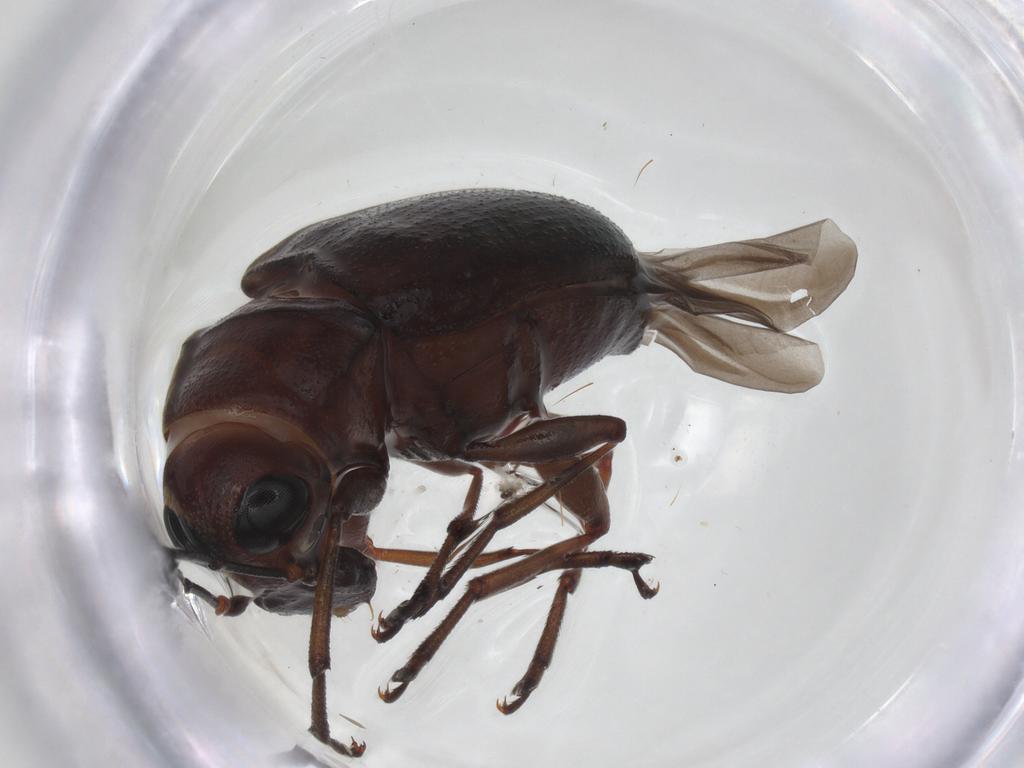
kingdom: Animalia
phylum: Arthropoda
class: Insecta
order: Coleoptera
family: Anthribidae
